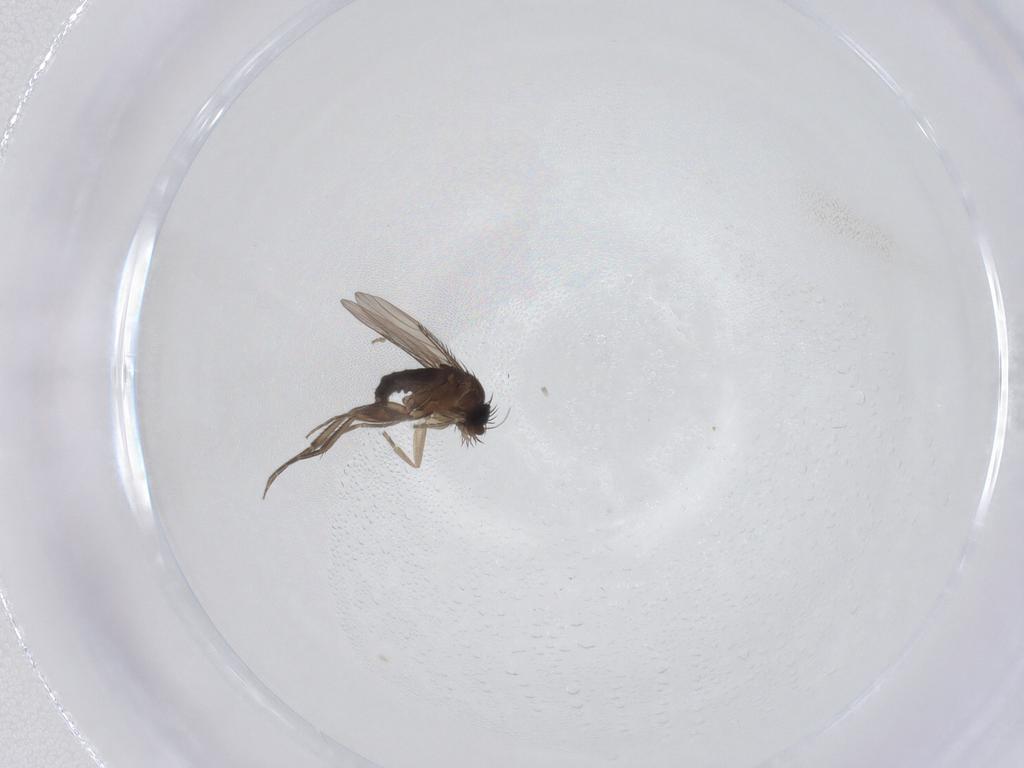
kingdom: Animalia
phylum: Arthropoda
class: Insecta
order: Diptera
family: Phoridae
